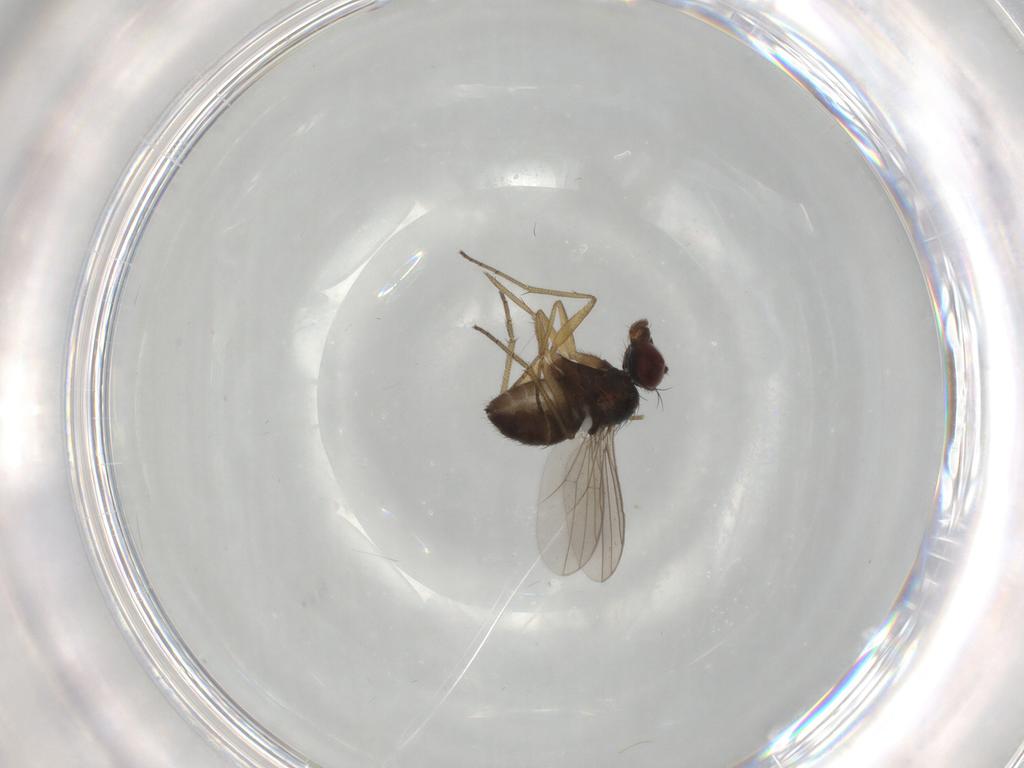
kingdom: Animalia
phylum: Arthropoda
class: Insecta
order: Diptera
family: Dolichopodidae
